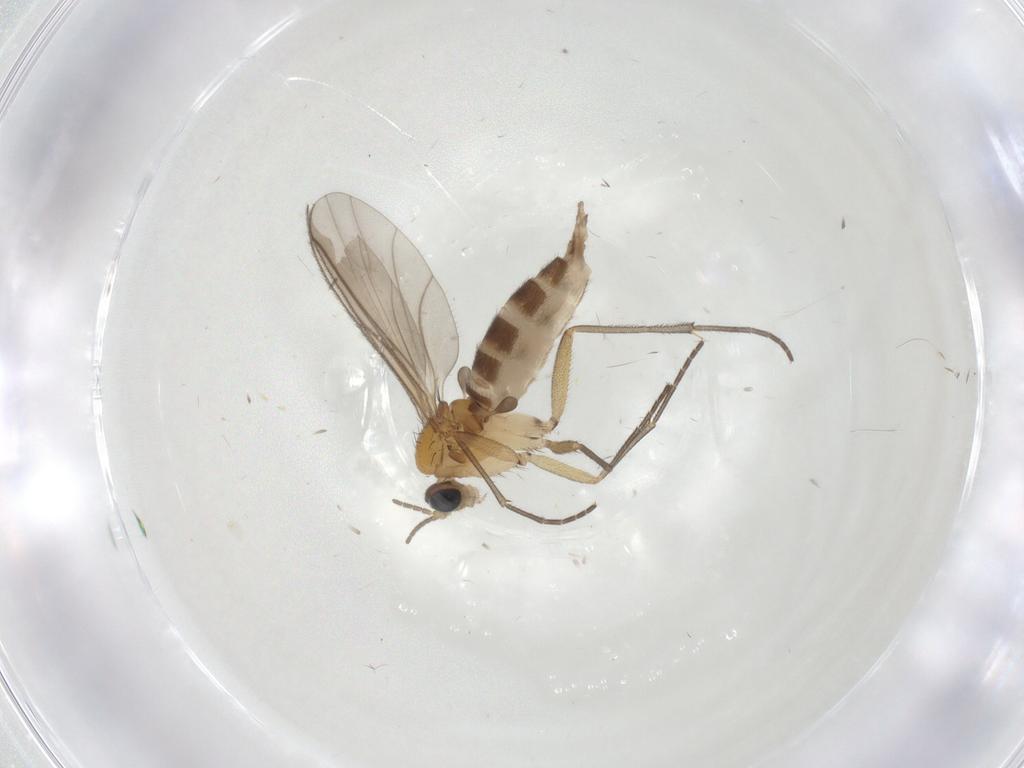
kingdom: Animalia
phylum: Arthropoda
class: Insecta
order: Diptera
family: Sciaridae
